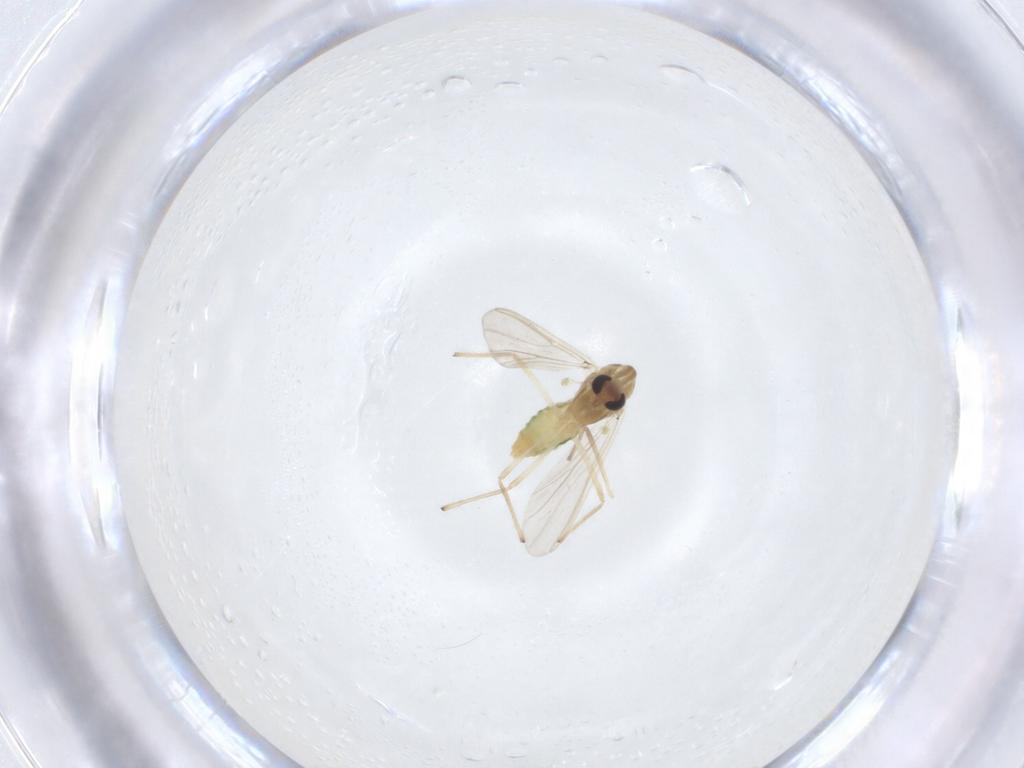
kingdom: Animalia
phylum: Arthropoda
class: Insecta
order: Diptera
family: Chironomidae
